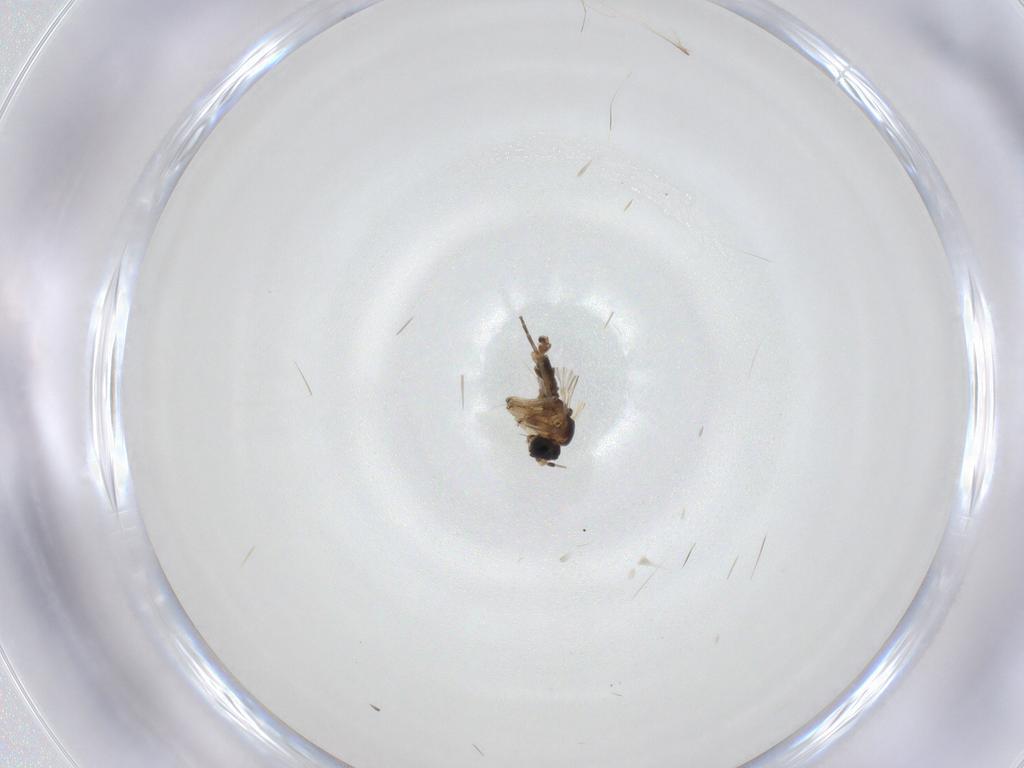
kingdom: Animalia
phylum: Arthropoda
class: Insecta
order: Diptera
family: Cecidomyiidae
